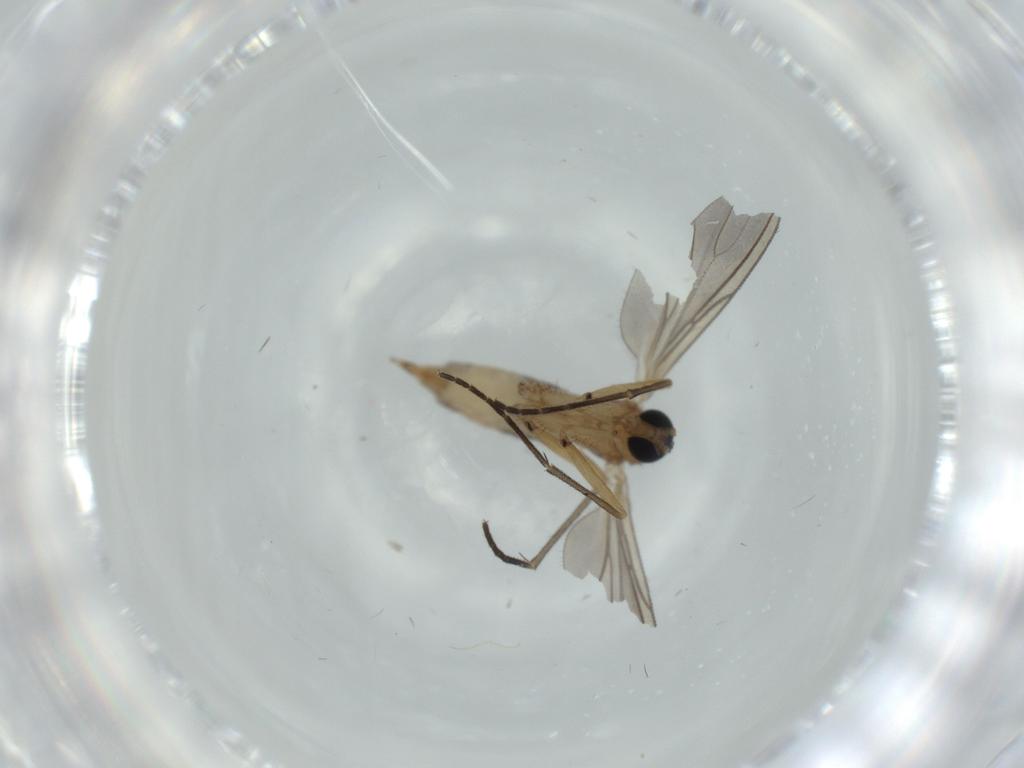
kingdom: Animalia
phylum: Arthropoda
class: Insecta
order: Diptera
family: Sciaridae
